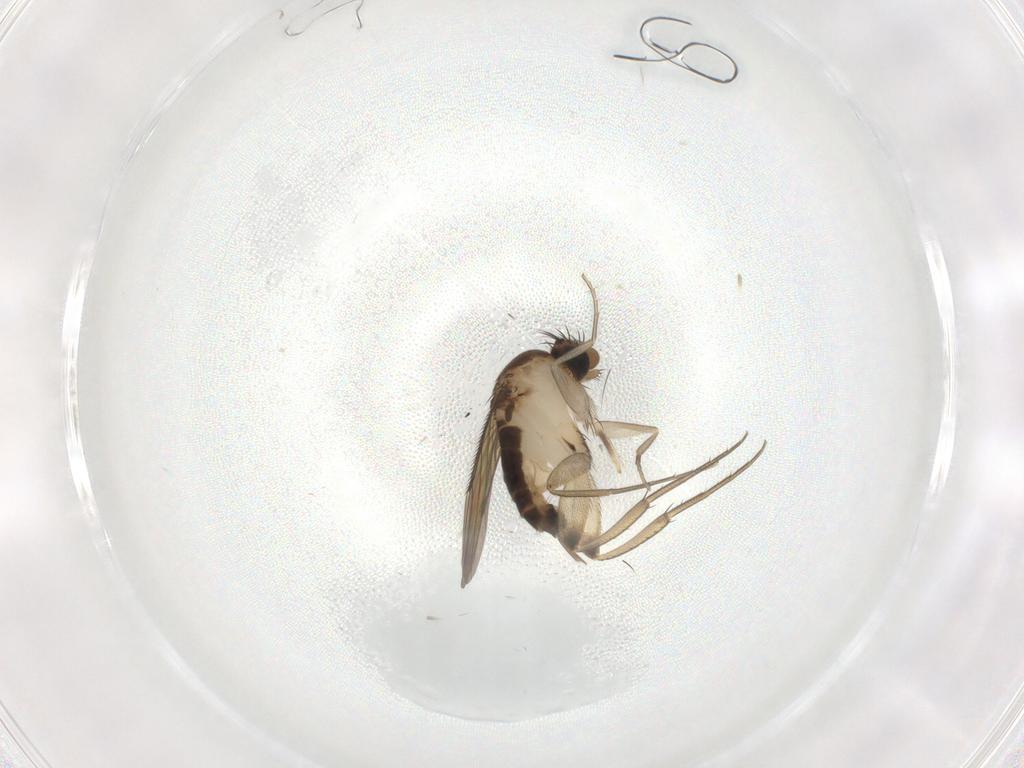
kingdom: Animalia
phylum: Arthropoda
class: Insecta
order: Diptera
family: Phoridae
